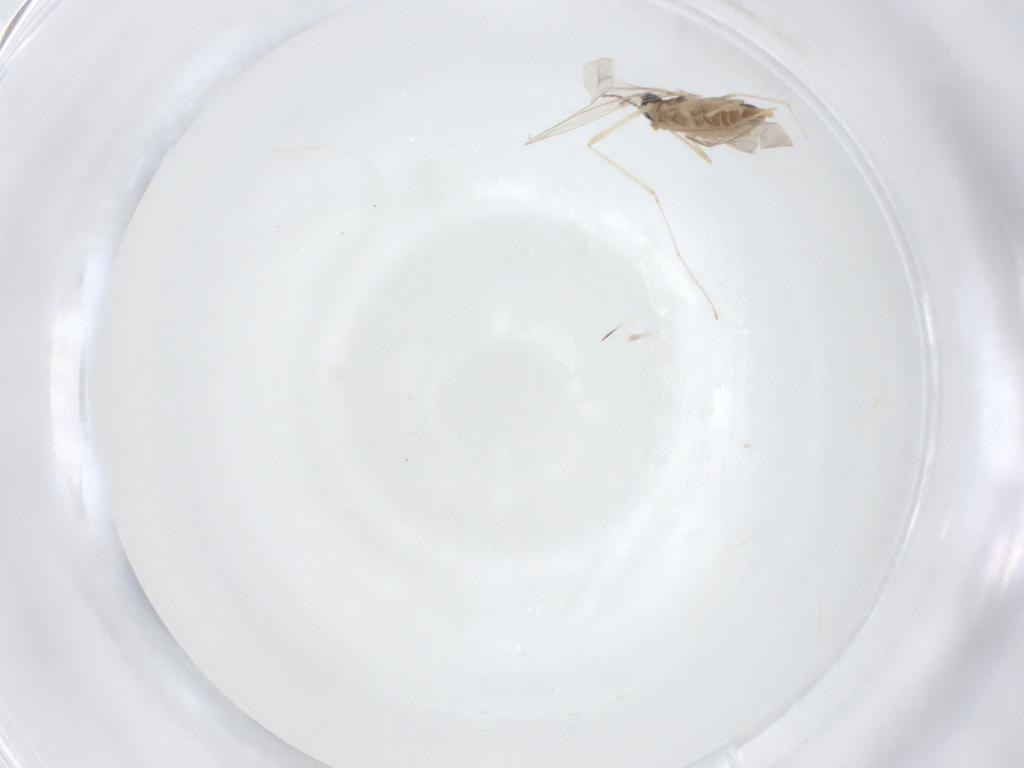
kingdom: Animalia
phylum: Arthropoda
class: Insecta
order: Diptera
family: Cecidomyiidae
